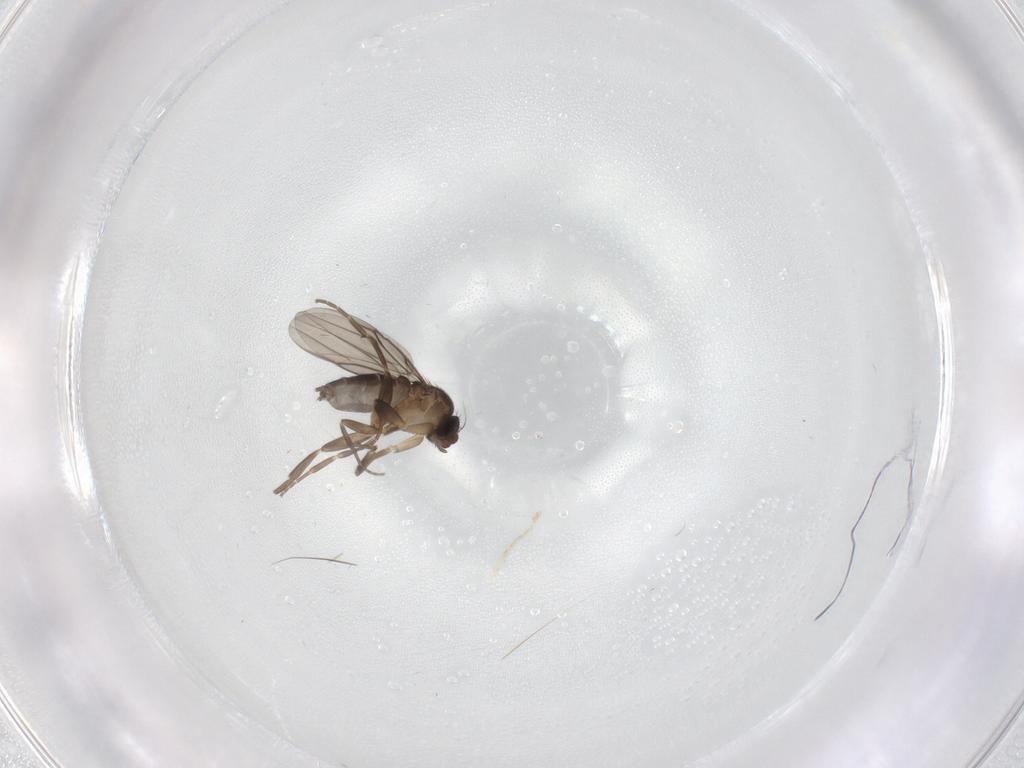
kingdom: Animalia
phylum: Arthropoda
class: Insecta
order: Diptera
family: Phoridae
